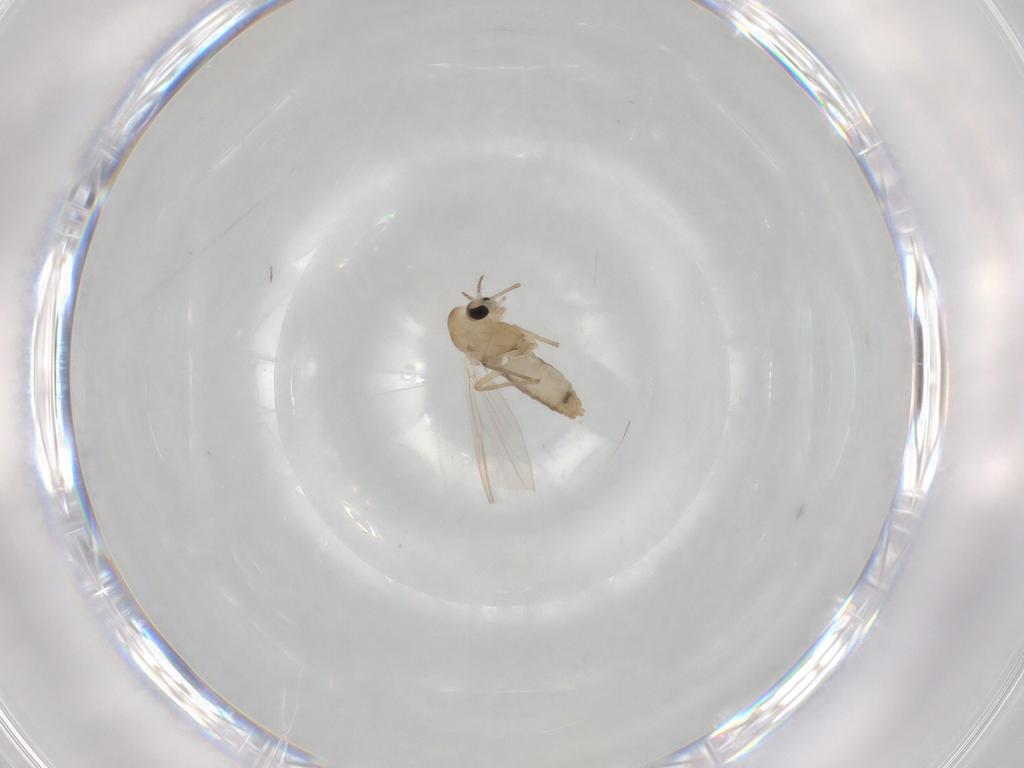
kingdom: Animalia
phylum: Arthropoda
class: Insecta
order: Diptera
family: Chironomidae
